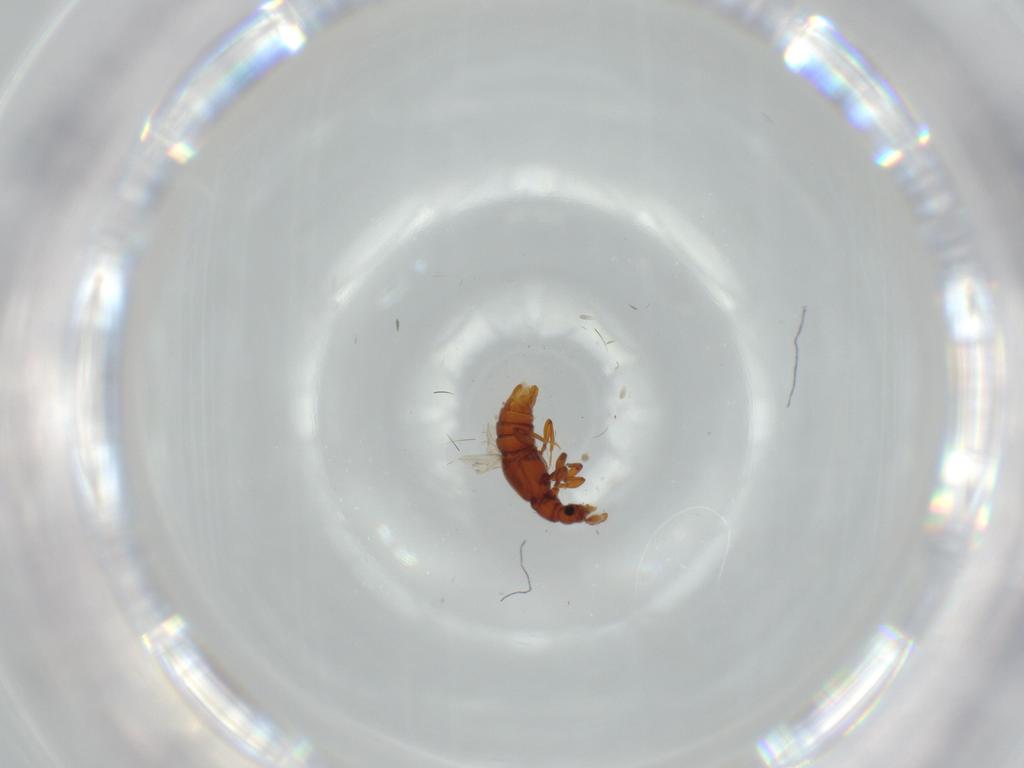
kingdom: Animalia
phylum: Arthropoda
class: Insecta
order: Coleoptera
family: Staphylinidae
